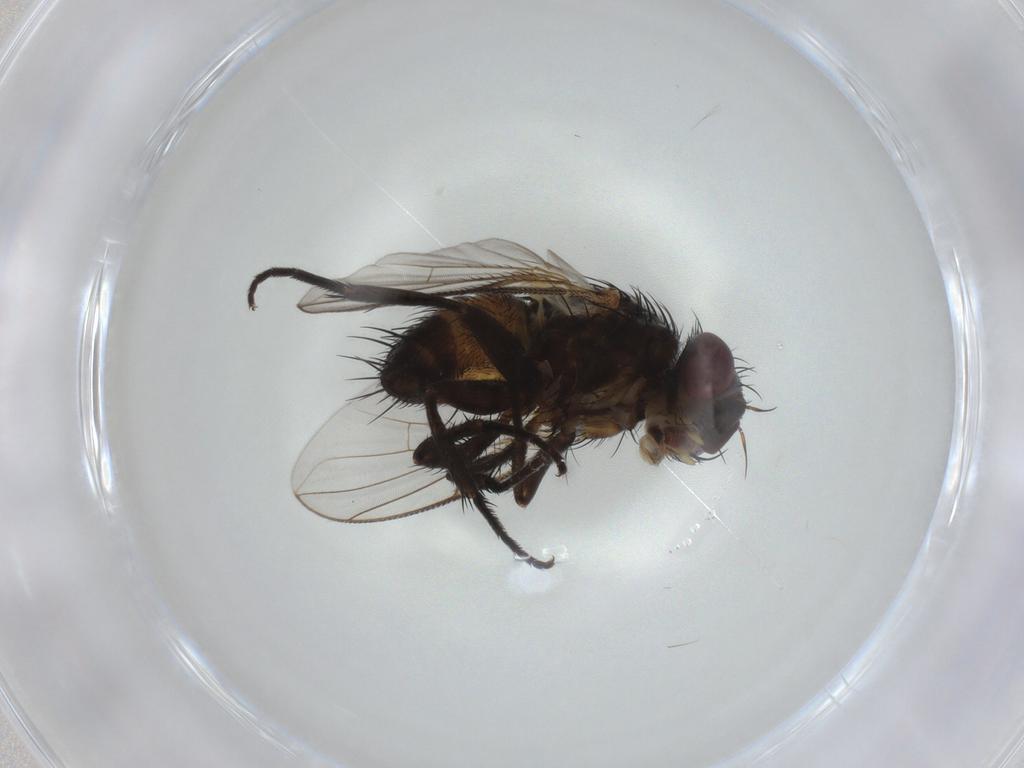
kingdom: Animalia
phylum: Arthropoda
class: Insecta
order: Diptera
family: Tachinidae
